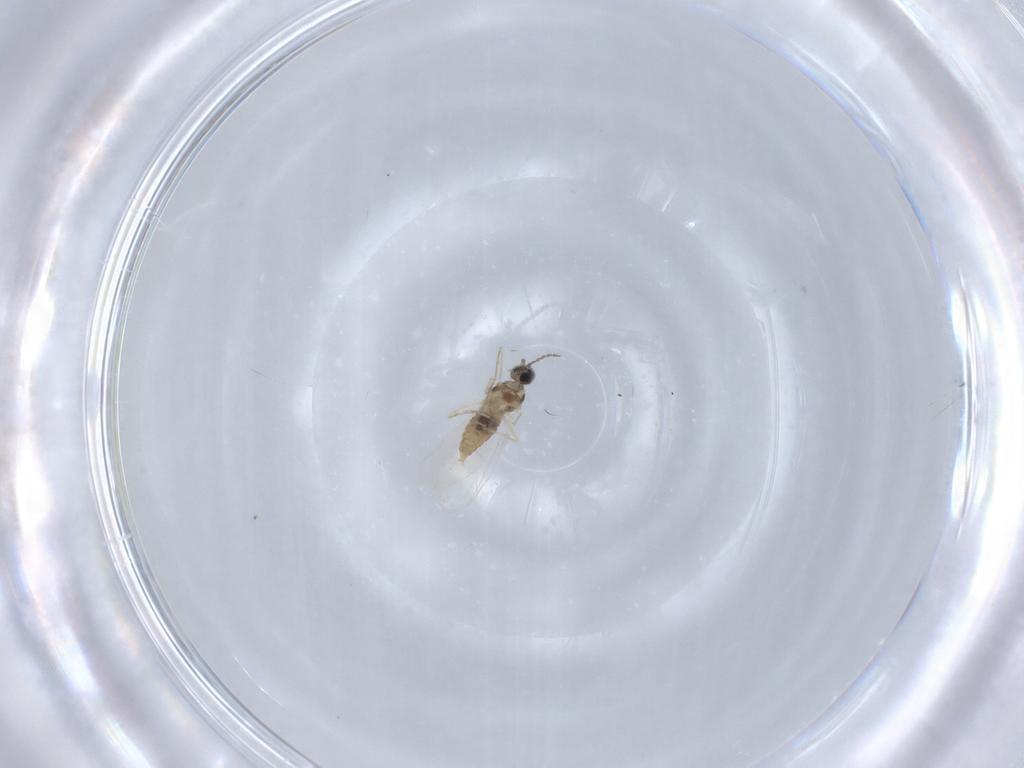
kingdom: Animalia
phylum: Arthropoda
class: Insecta
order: Diptera
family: Cecidomyiidae
